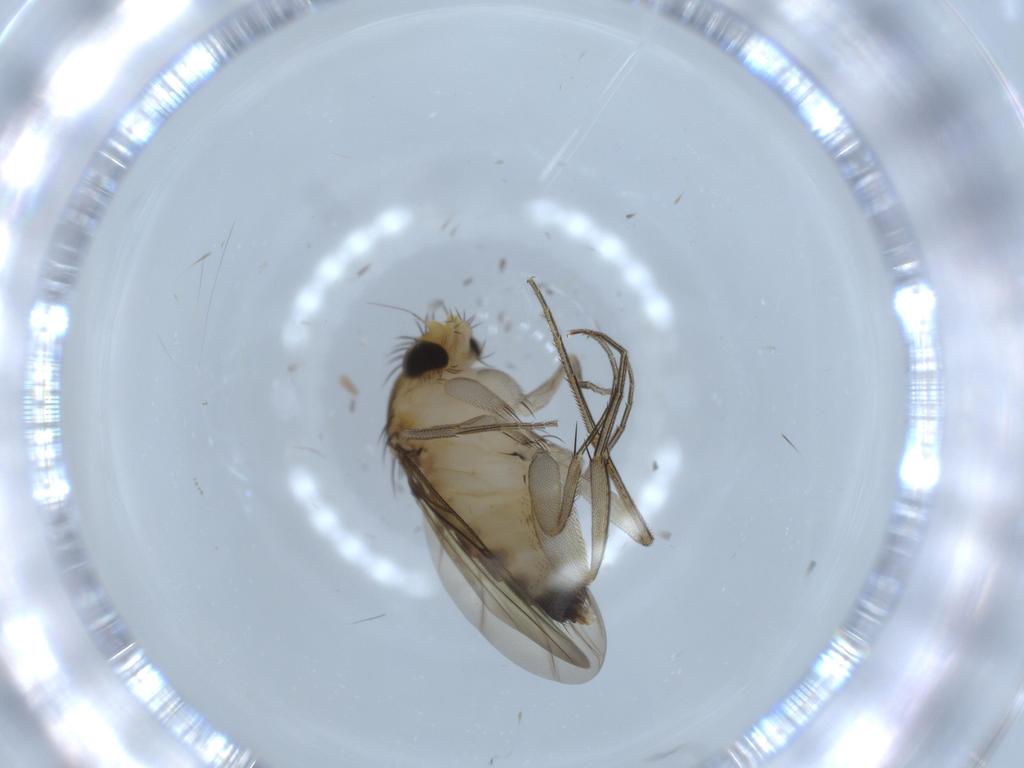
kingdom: Animalia
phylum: Arthropoda
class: Insecta
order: Diptera
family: Phoridae
